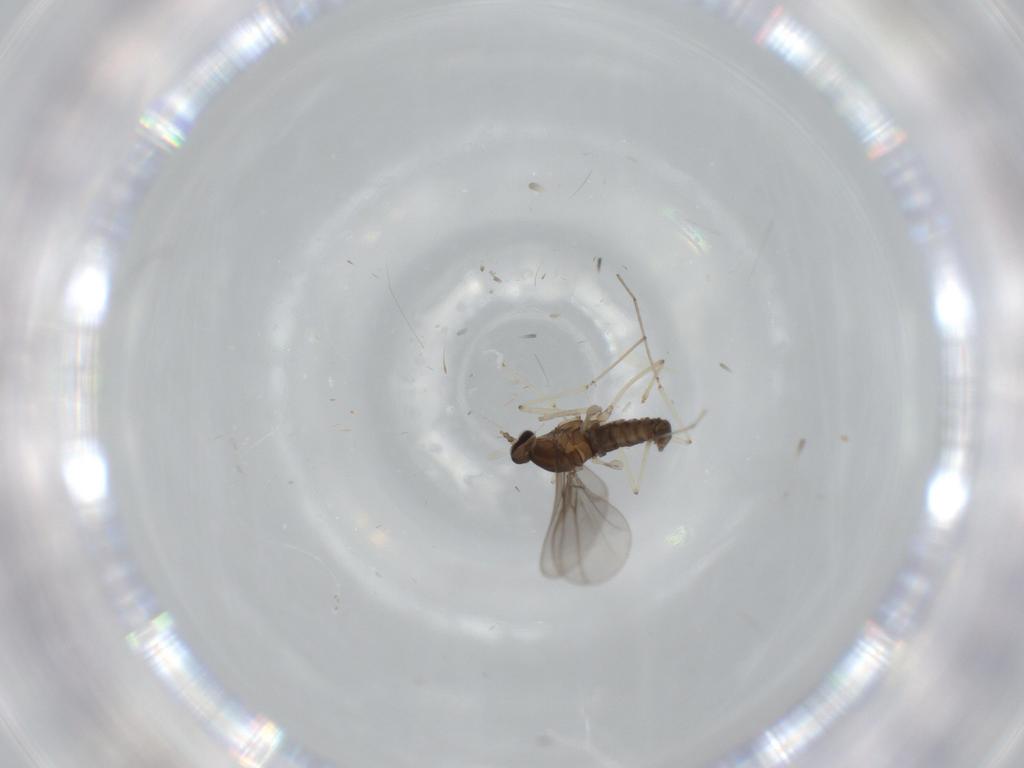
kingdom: Animalia
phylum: Arthropoda
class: Insecta
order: Diptera
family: Cecidomyiidae
